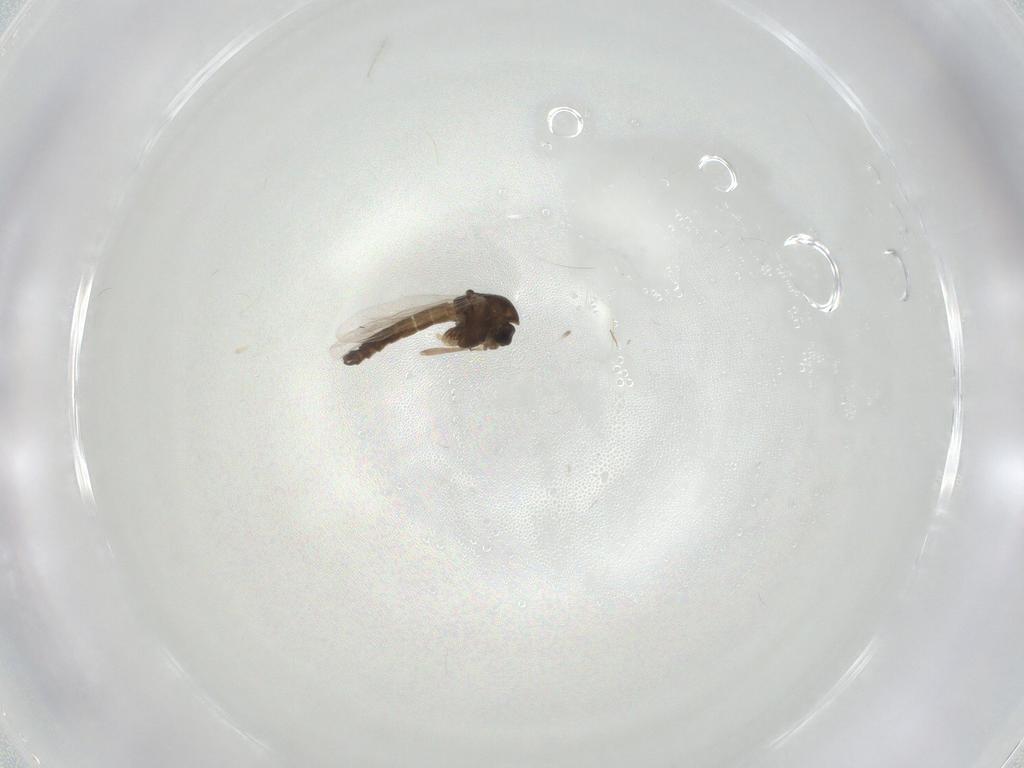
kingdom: Animalia
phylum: Arthropoda
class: Insecta
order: Diptera
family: Chironomidae
